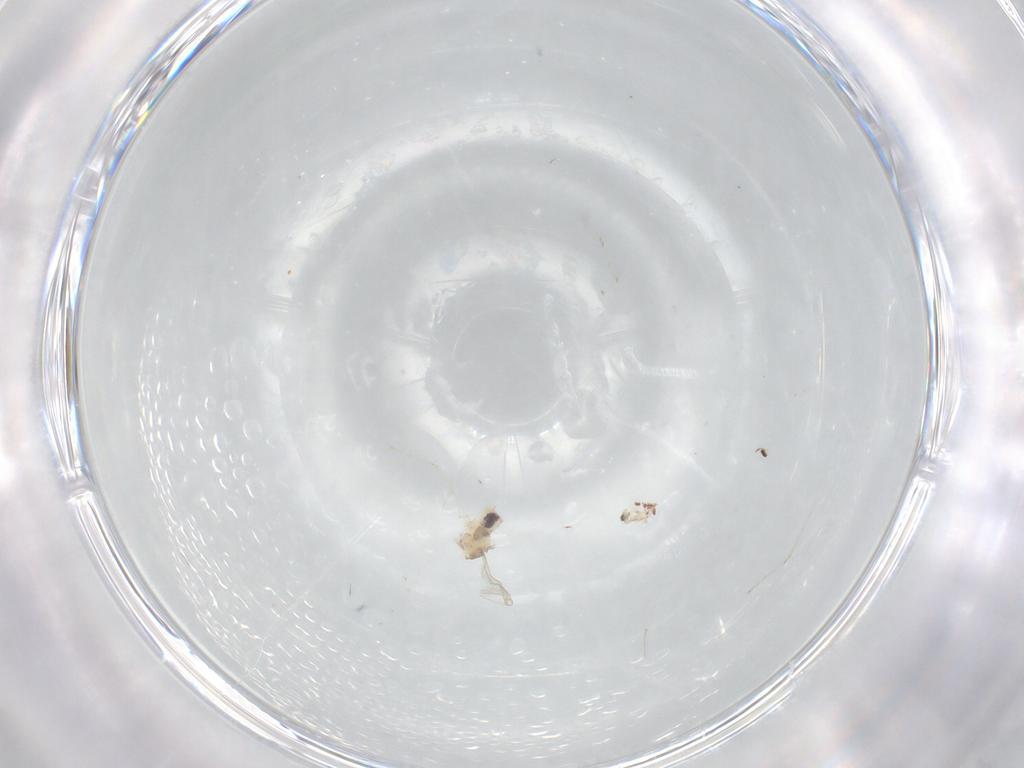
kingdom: Animalia
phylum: Arthropoda
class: Insecta
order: Diptera
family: Cecidomyiidae
